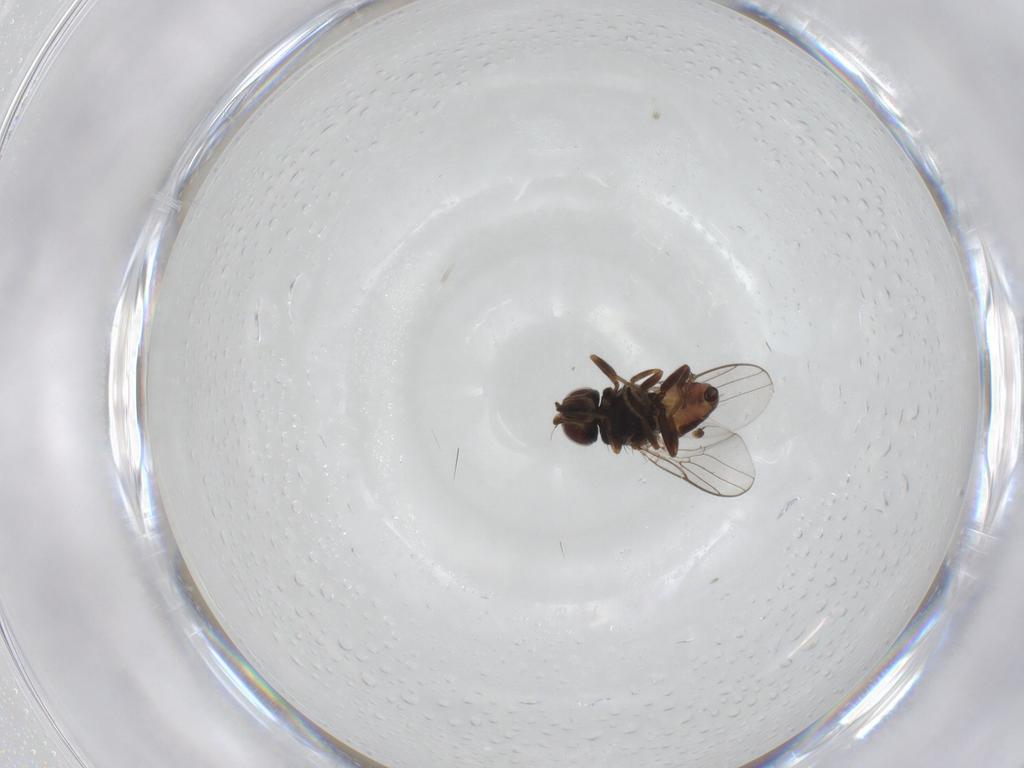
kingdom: Animalia
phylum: Arthropoda
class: Insecta
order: Diptera
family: Chloropidae
